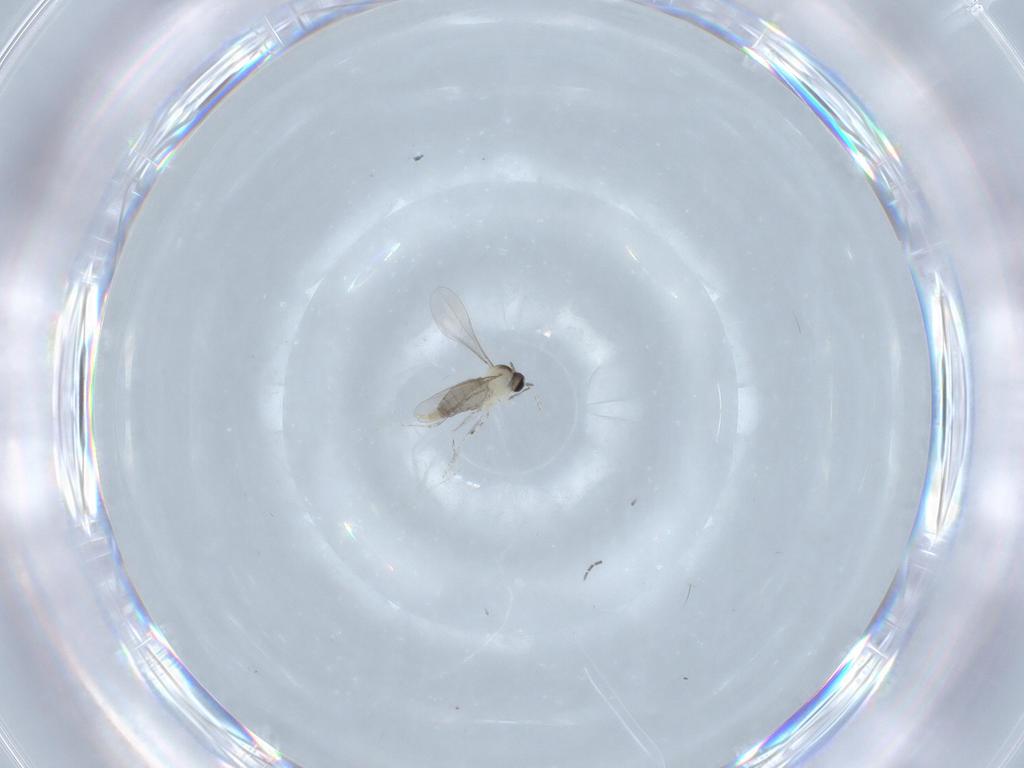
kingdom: Animalia
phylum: Arthropoda
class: Insecta
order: Diptera
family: Cecidomyiidae
